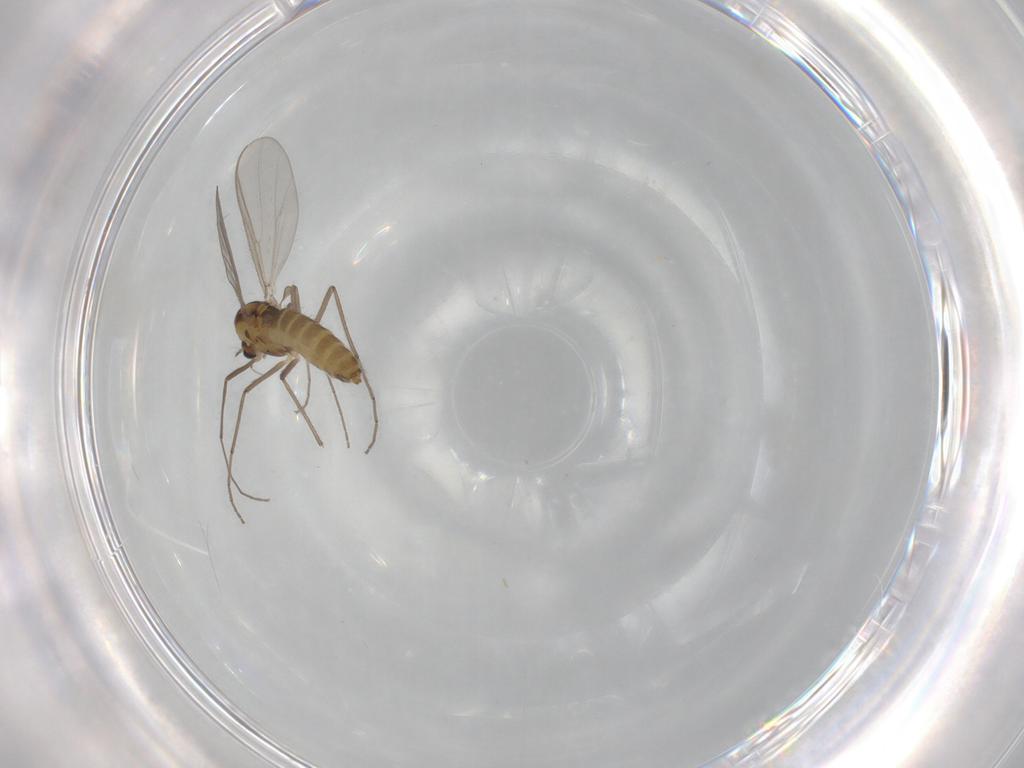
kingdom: Animalia
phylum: Arthropoda
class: Insecta
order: Diptera
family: Chironomidae
